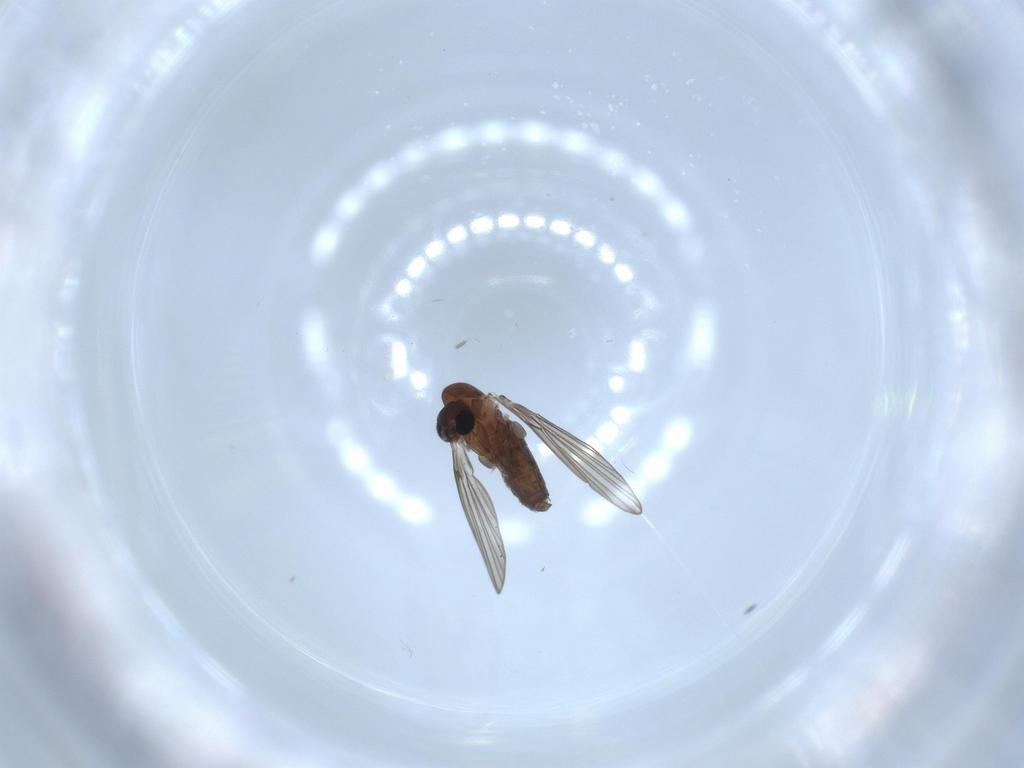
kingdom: Animalia
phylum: Arthropoda
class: Insecta
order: Diptera
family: Psychodidae
